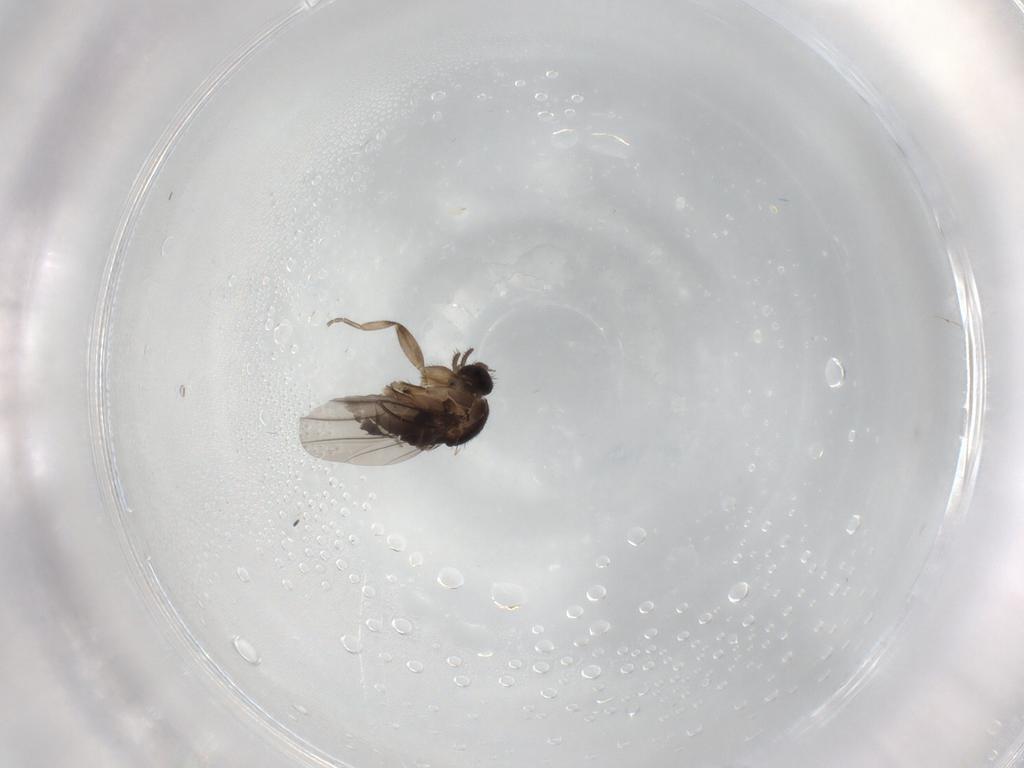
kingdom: Animalia
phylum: Arthropoda
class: Insecta
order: Diptera
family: Phoridae
